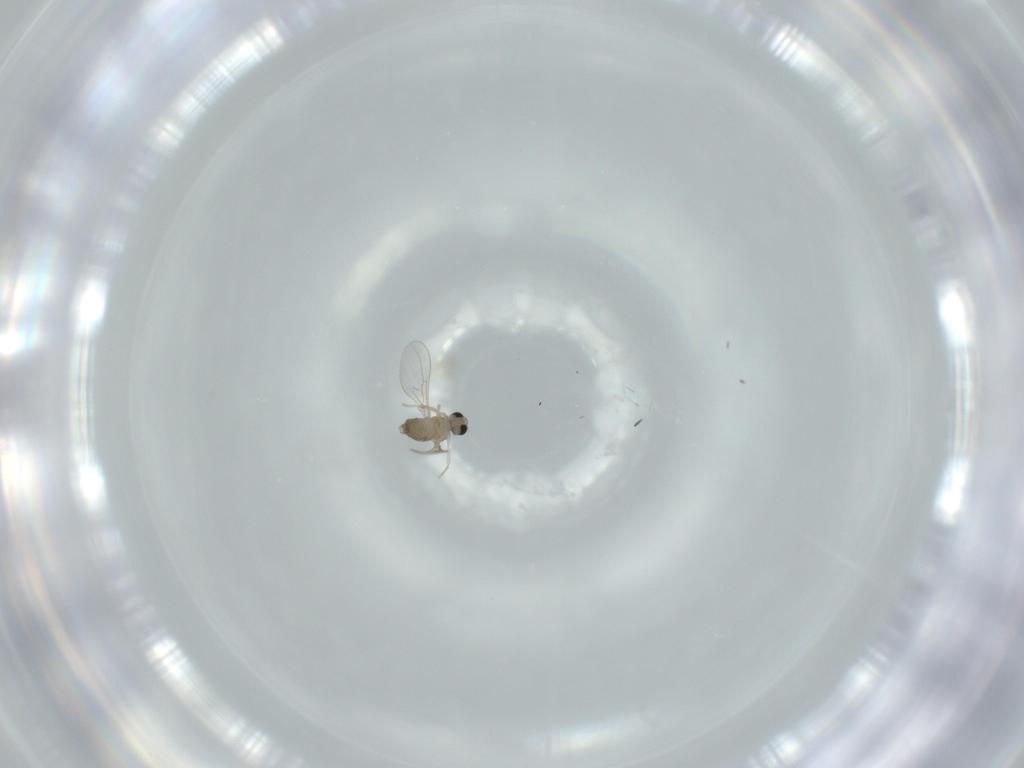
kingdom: Animalia
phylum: Arthropoda
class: Insecta
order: Diptera
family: Cecidomyiidae
